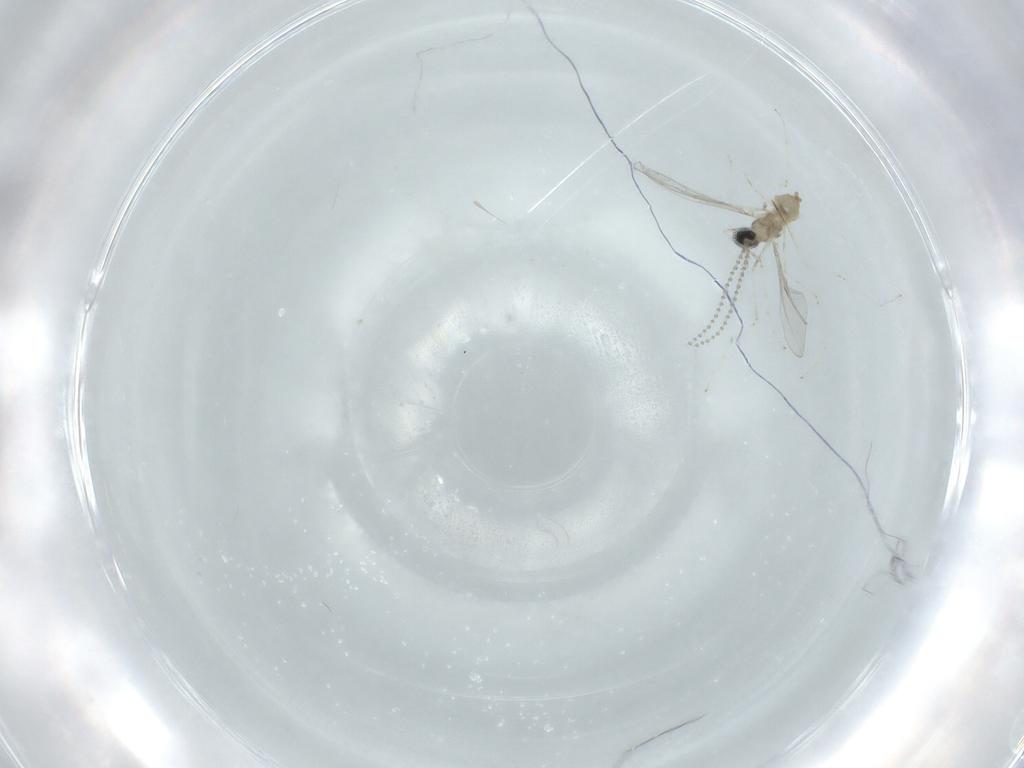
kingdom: Animalia
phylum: Arthropoda
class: Insecta
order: Diptera
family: Cecidomyiidae
